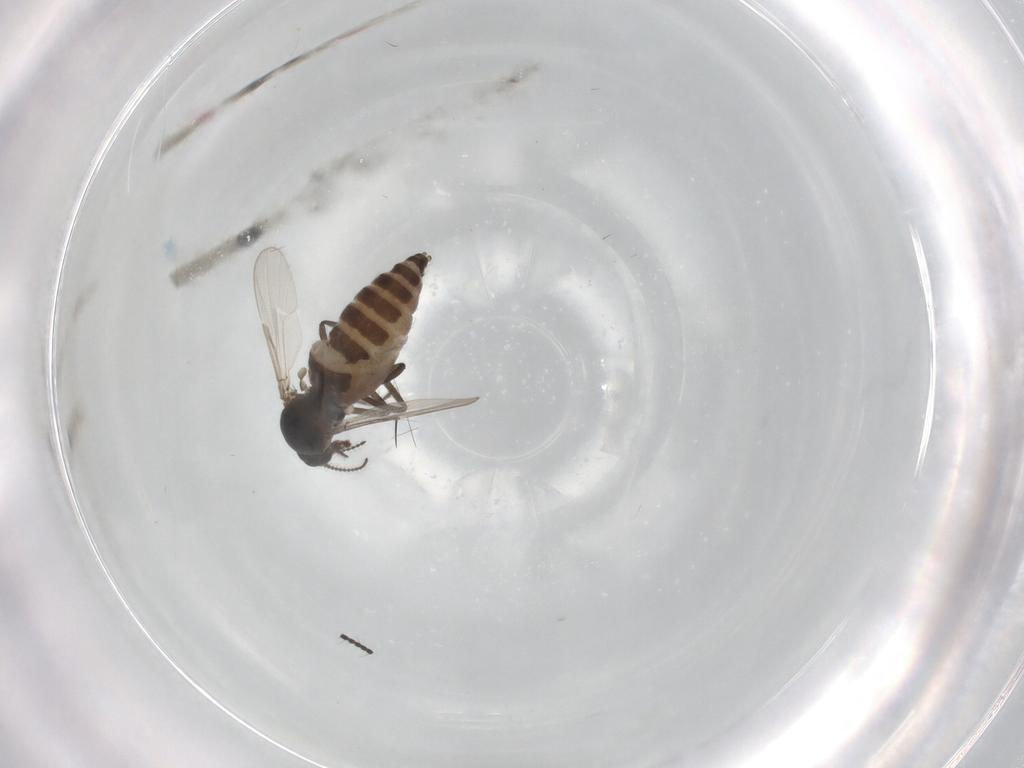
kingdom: Animalia
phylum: Arthropoda
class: Insecta
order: Diptera
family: Ceratopogonidae
